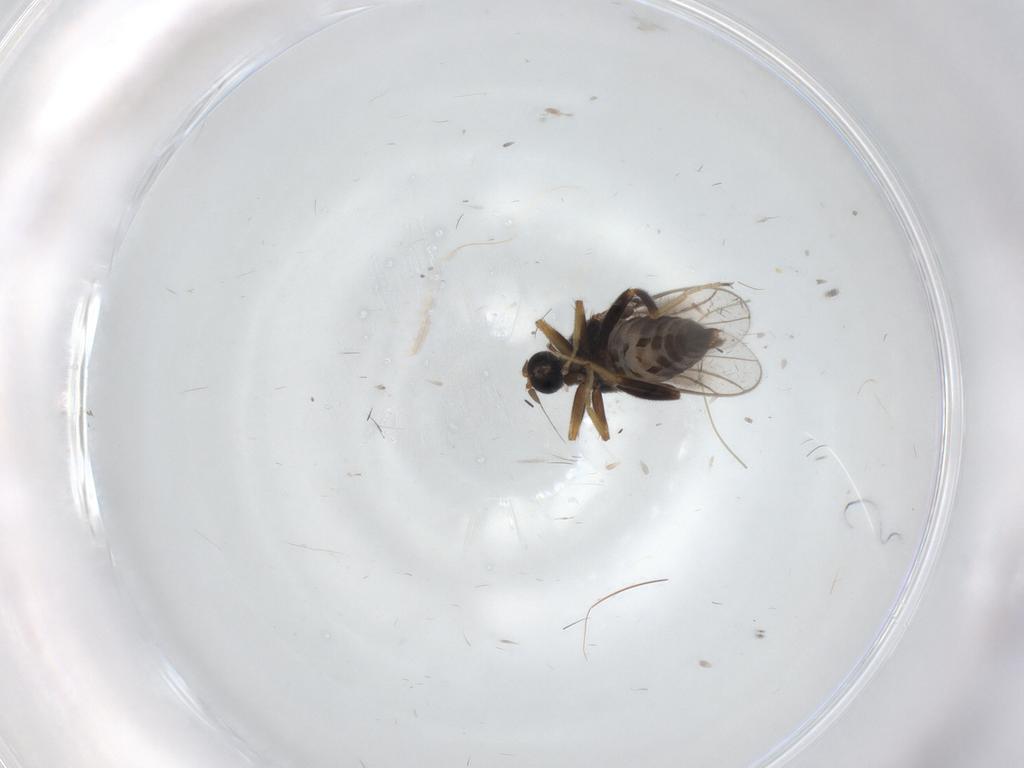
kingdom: Animalia
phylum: Arthropoda
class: Insecta
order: Diptera
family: Hybotidae
